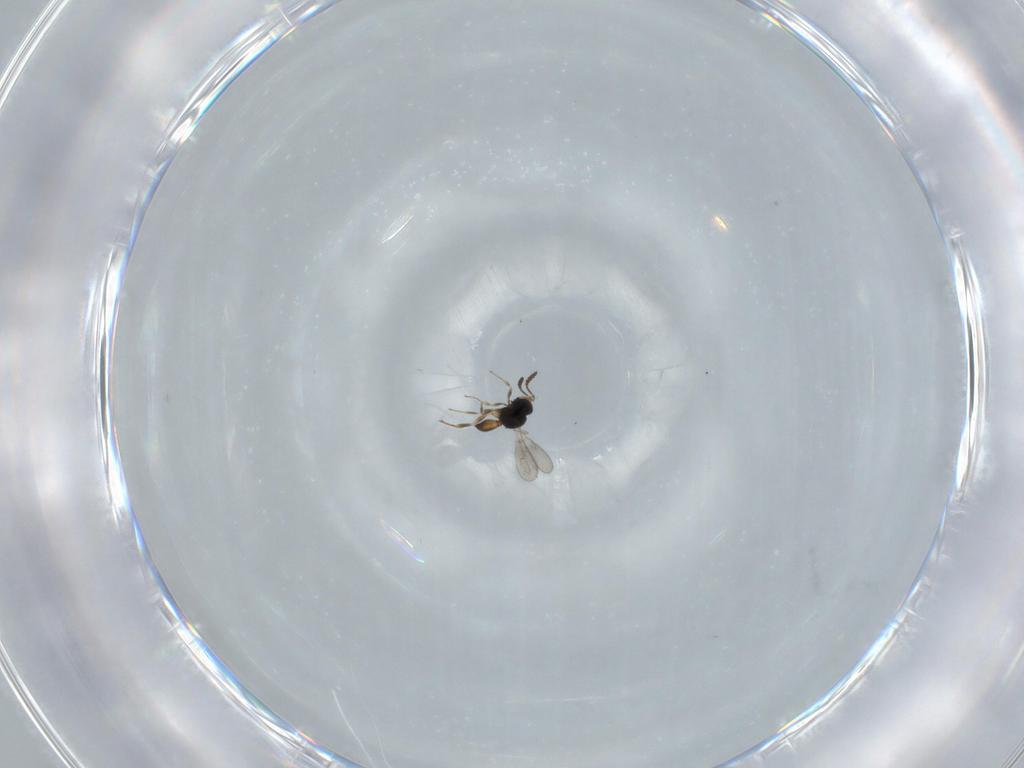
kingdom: Animalia
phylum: Arthropoda
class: Insecta
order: Hymenoptera
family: Scelionidae
